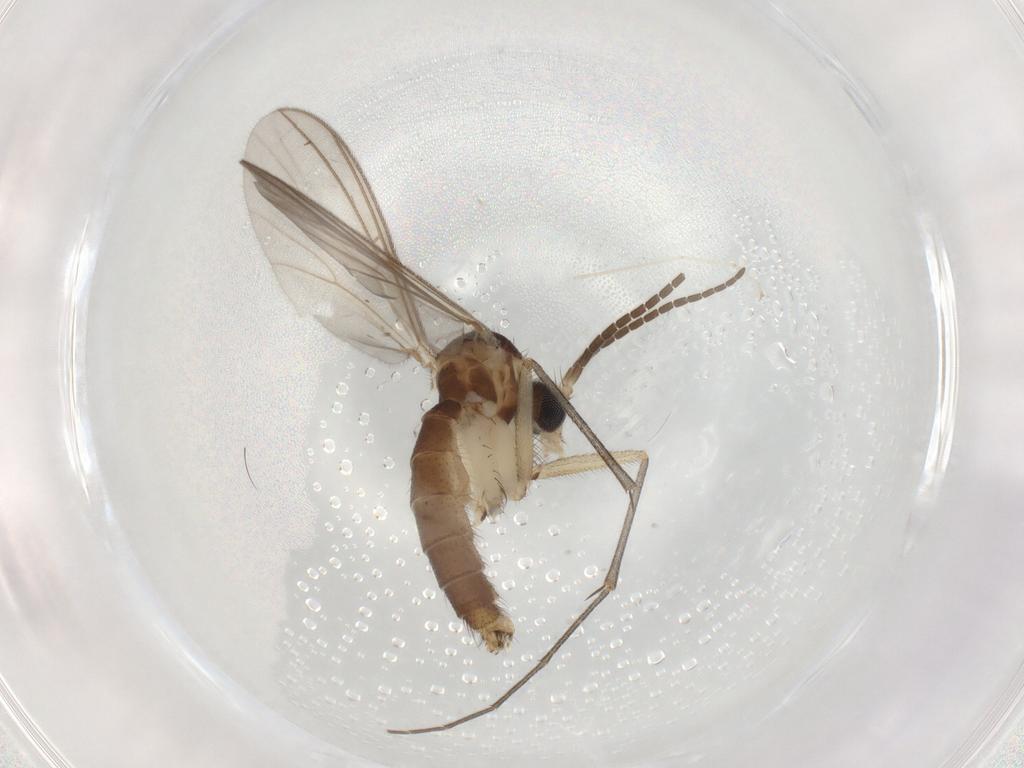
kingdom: Animalia
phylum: Arthropoda
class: Insecta
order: Diptera
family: Mycetophilidae
